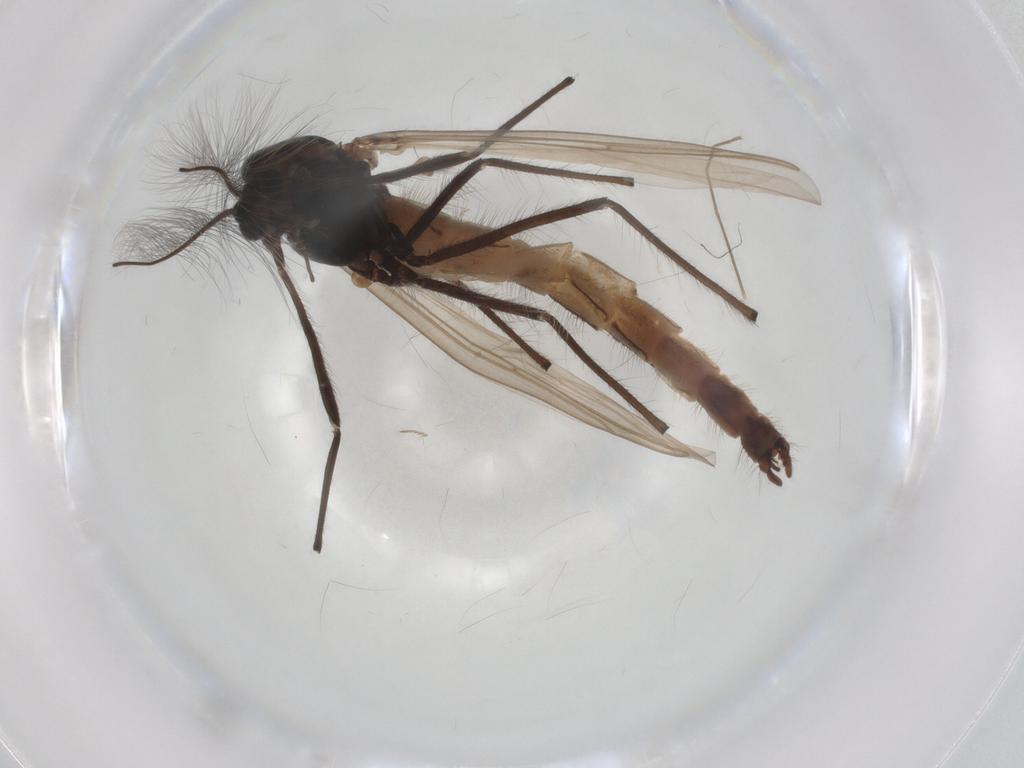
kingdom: Animalia
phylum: Arthropoda
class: Insecta
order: Diptera
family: Chironomidae
